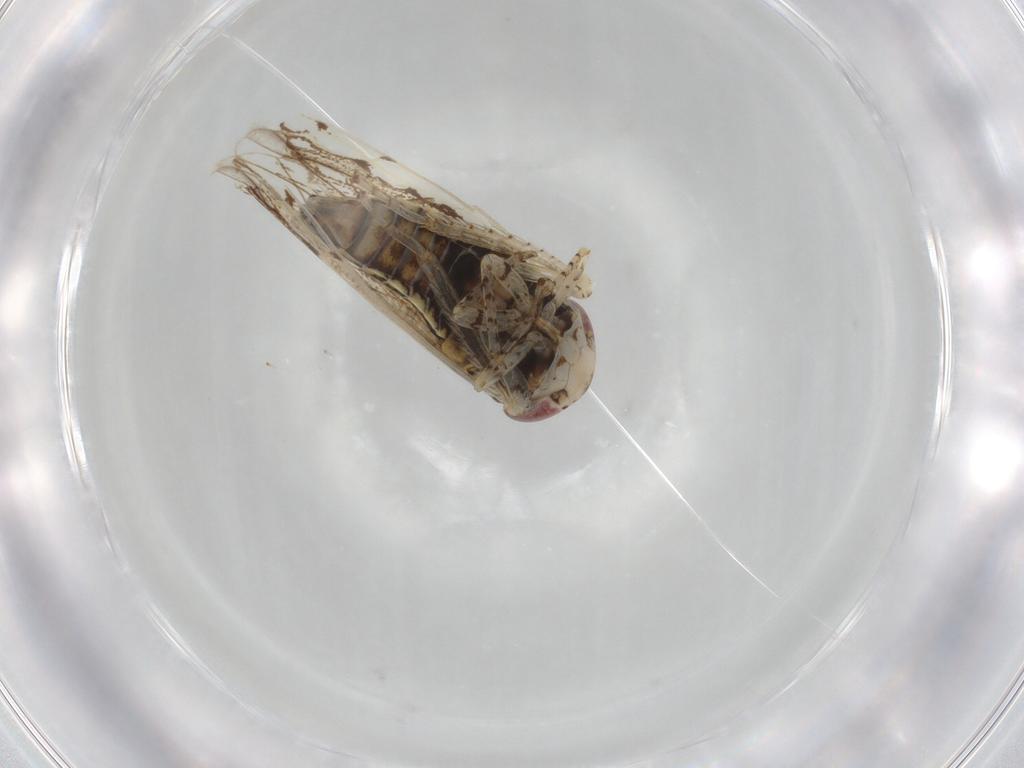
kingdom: Animalia
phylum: Arthropoda
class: Insecta
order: Hemiptera
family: Cicadellidae
